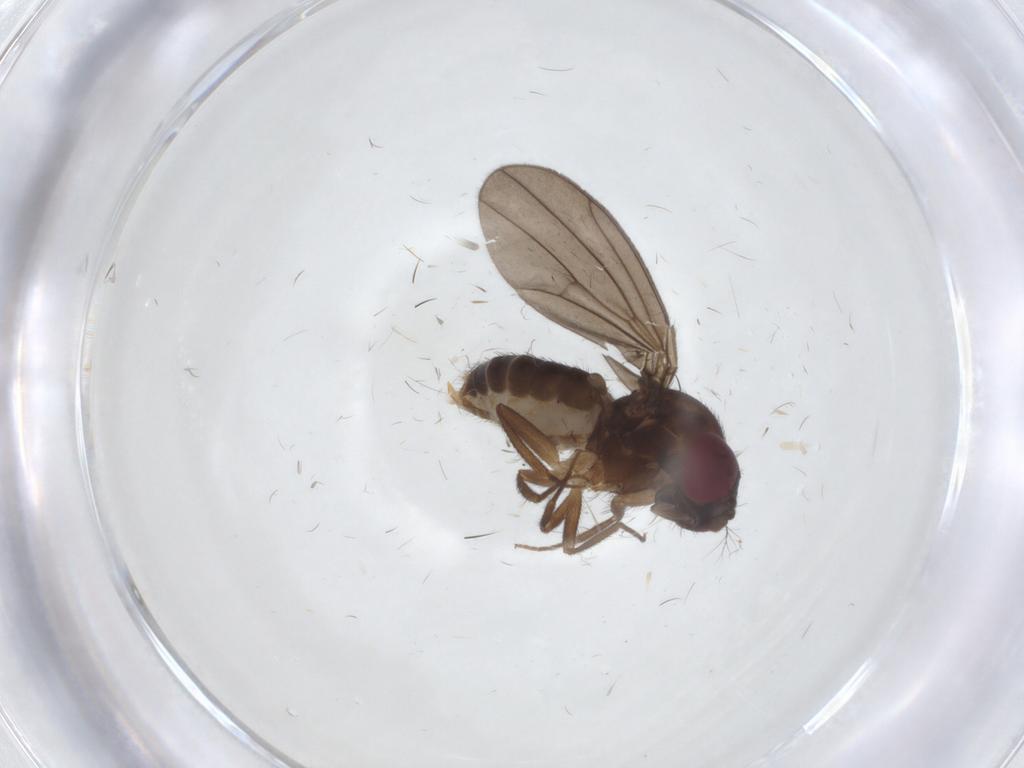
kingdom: Animalia
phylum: Arthropoda
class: Insecta
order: Diptera
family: Drosophilidae
